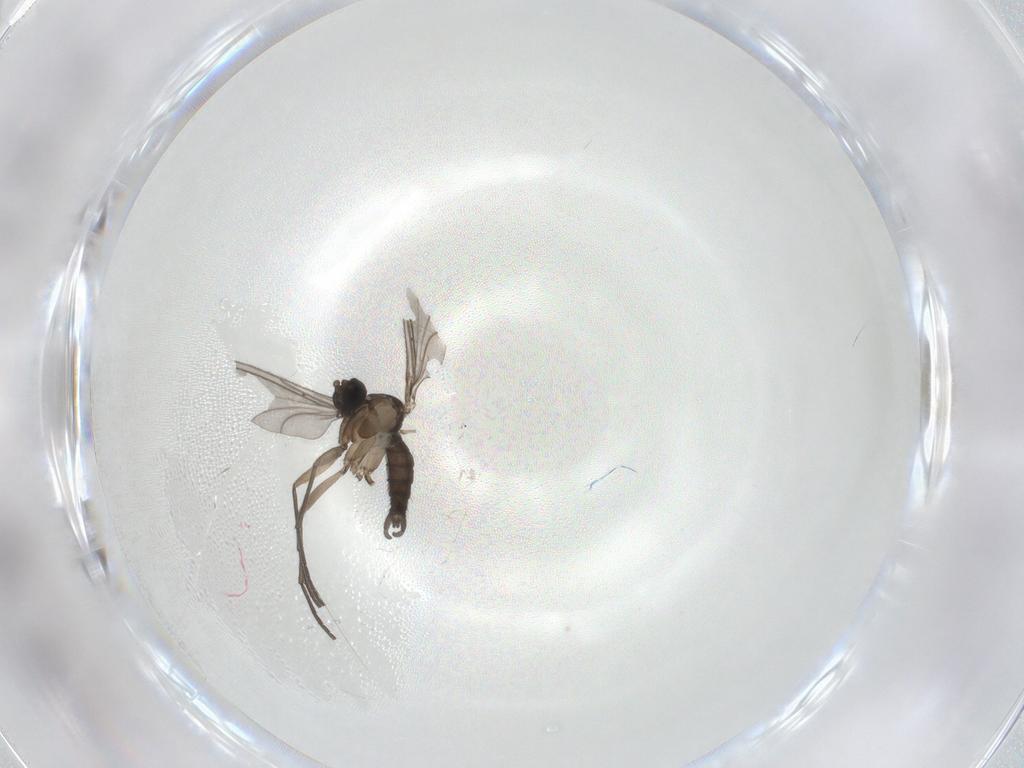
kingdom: Animalia
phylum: Arthropoda
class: Insecta
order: Diptera
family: Sciaridae
